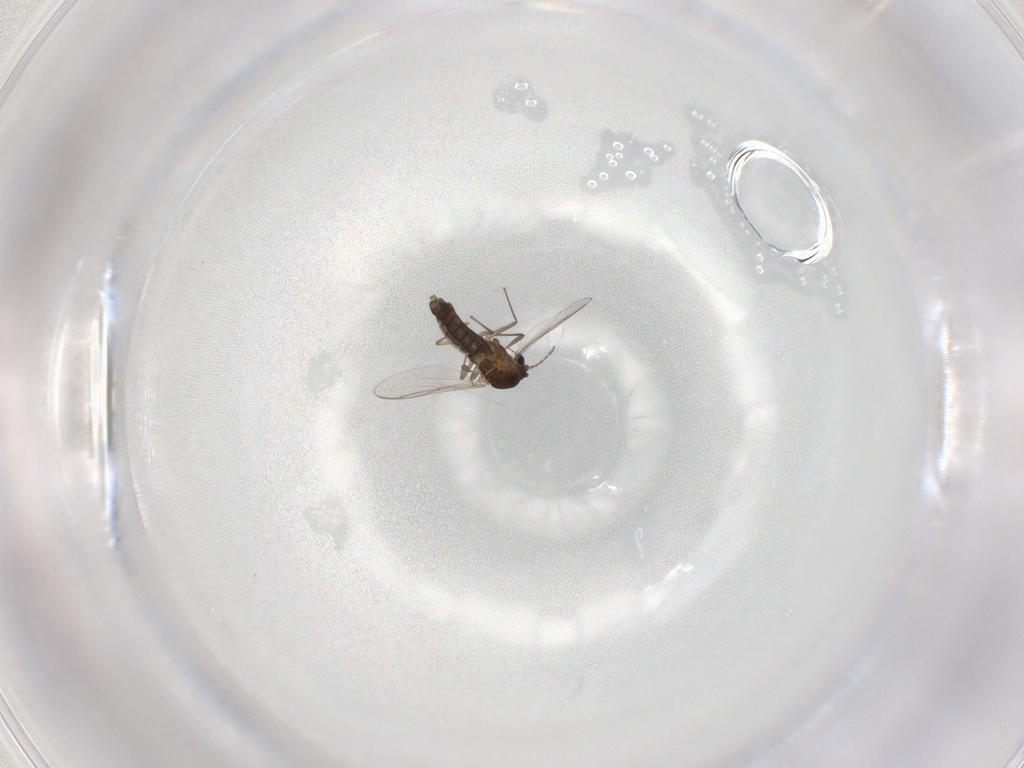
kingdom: Animalia
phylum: Arthropoda
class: Insecta
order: Diptera
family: Chironomidae
